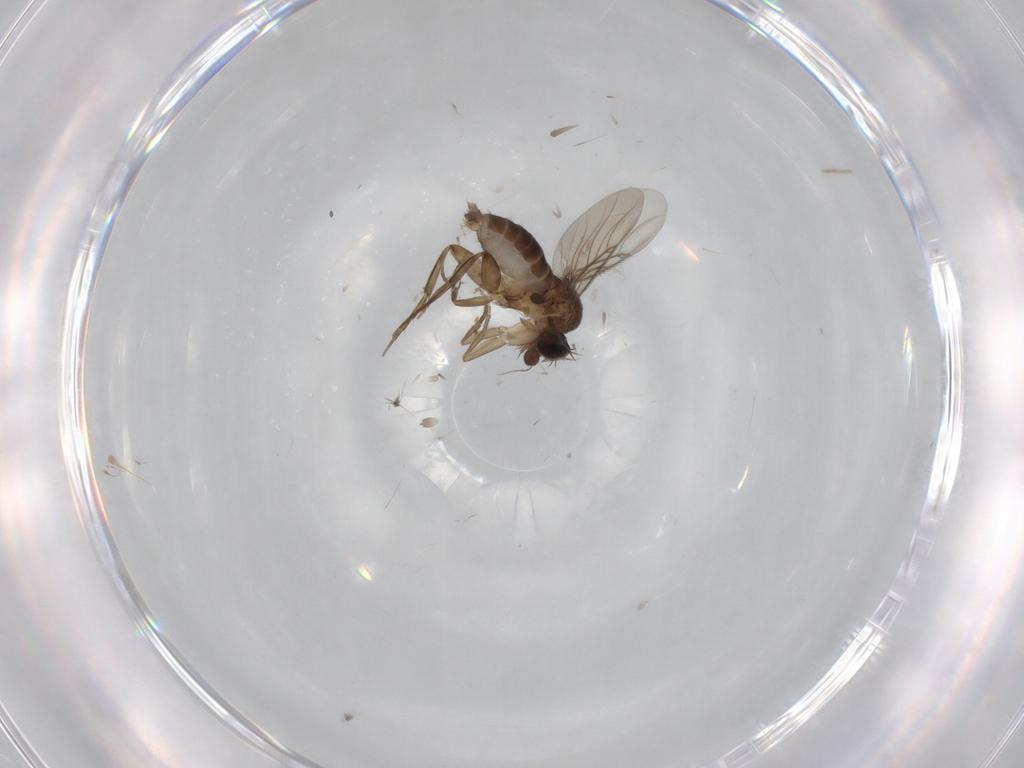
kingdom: Animalia
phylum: Arthropoda
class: Insecta
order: Diptera
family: Phoridae
